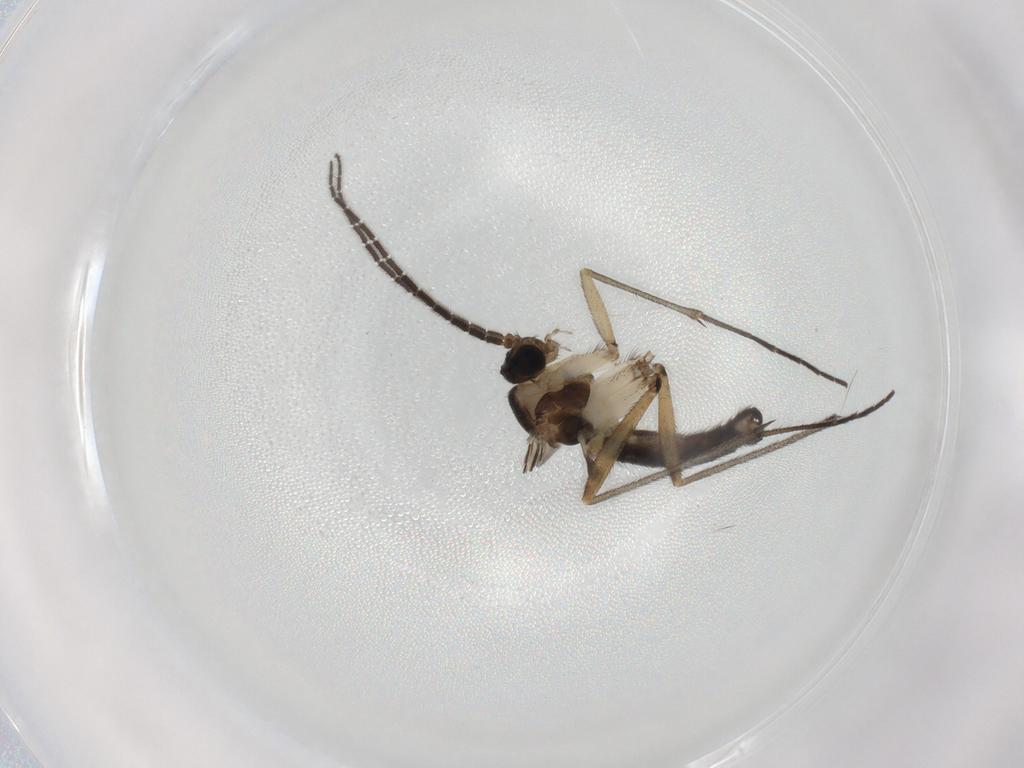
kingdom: Animalia
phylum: Arthropoda
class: Insecta
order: Diptera
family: Sciaridae
